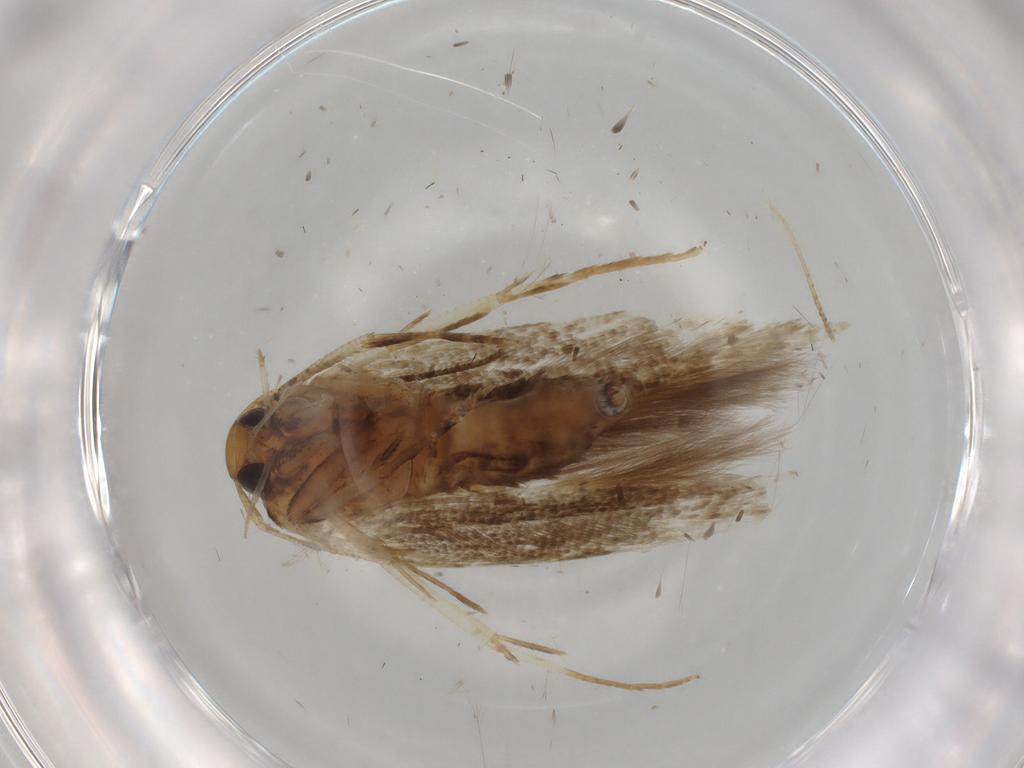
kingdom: Animalia
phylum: Arthropoda
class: Insecta
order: Lepidoptera
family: Cosmopterigidae
